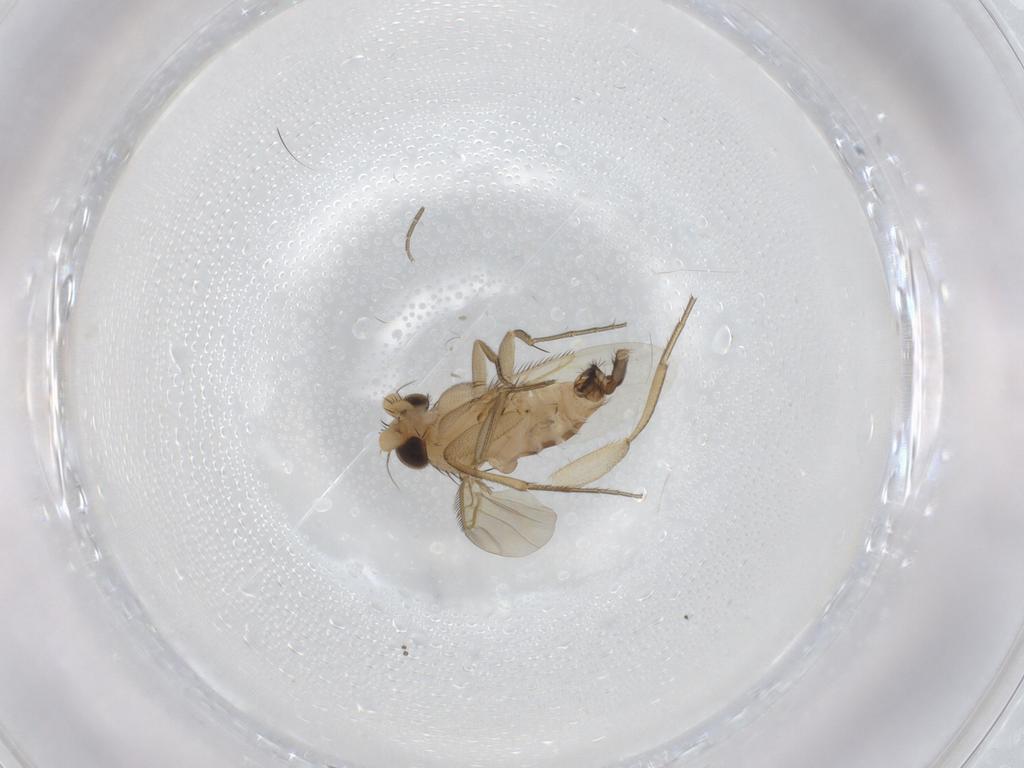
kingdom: Animalia
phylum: Arthropoda
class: Insecta
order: Diptera
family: Phoridae
